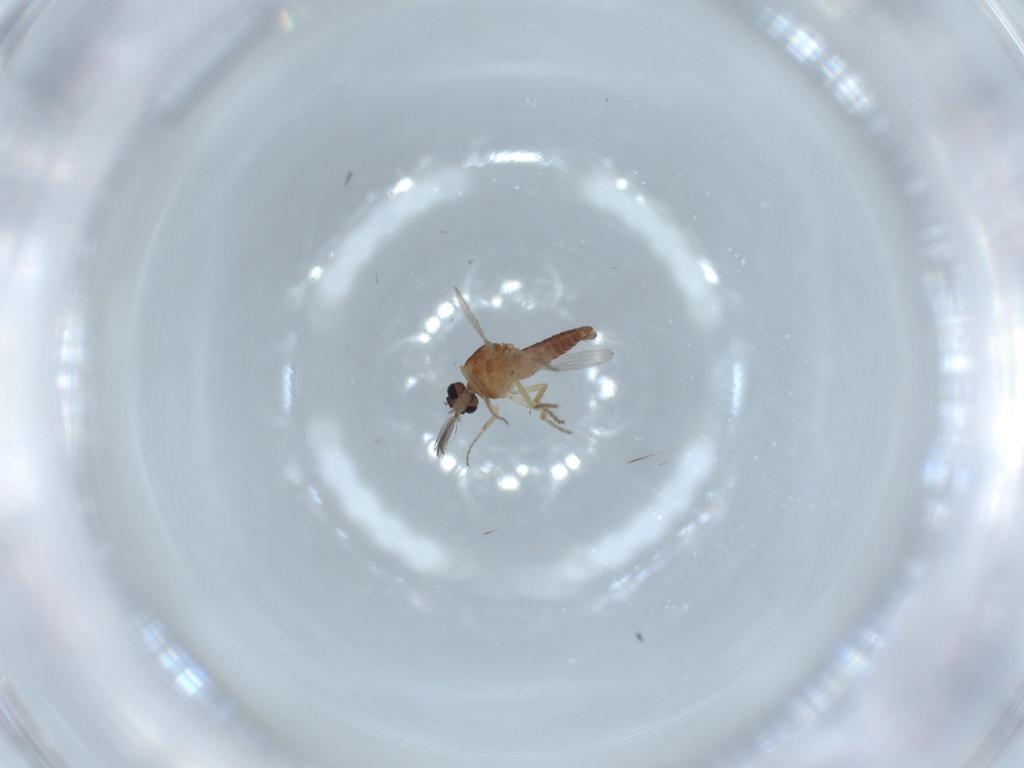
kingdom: Animalia
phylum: Arthropoda
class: Insecta
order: Diptera
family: Ceratopogonidae
